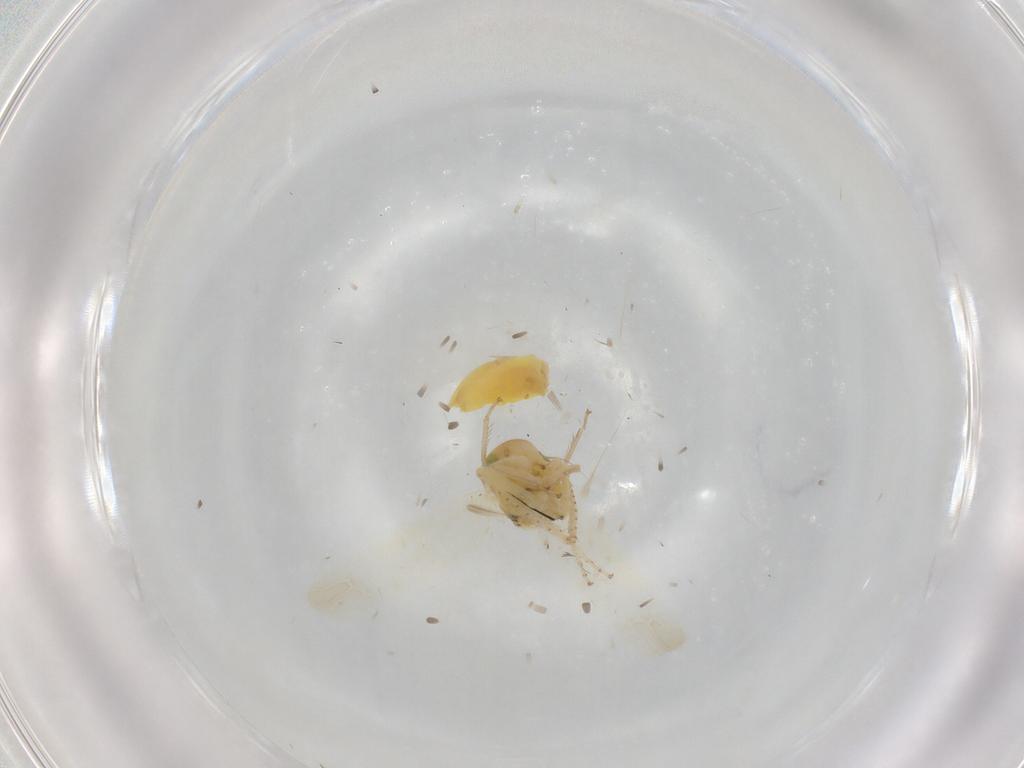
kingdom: Animalia
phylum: Arthropoda
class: Insecta
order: Hemiptera
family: Cicadellidae
